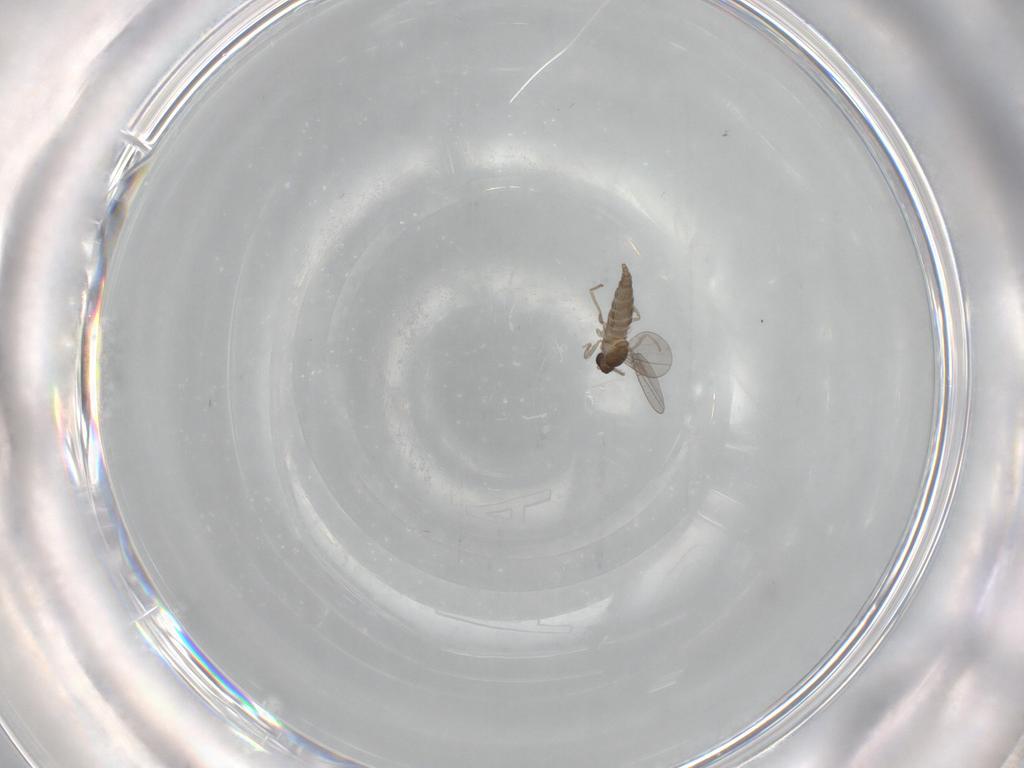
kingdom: Animalia
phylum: Arthropoda
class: Insecta
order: Diptera
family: Cecidomyiidae
